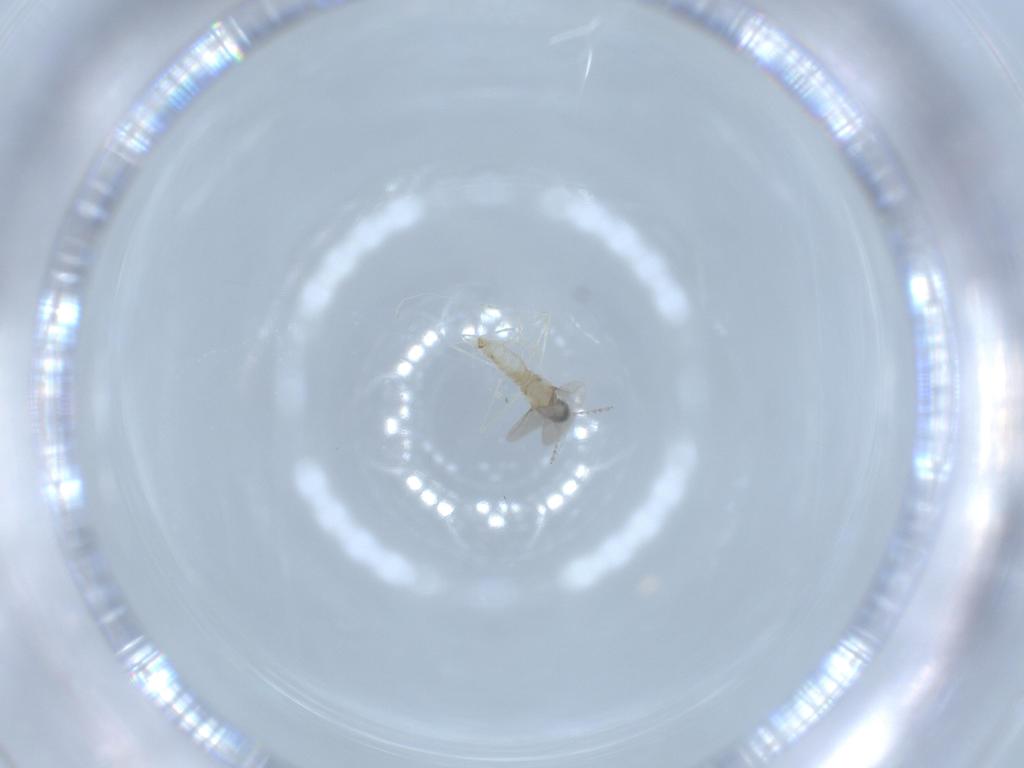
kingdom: Animalia
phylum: Arthropoda
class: Insecta
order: Diptera
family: Cecidomyiidae
